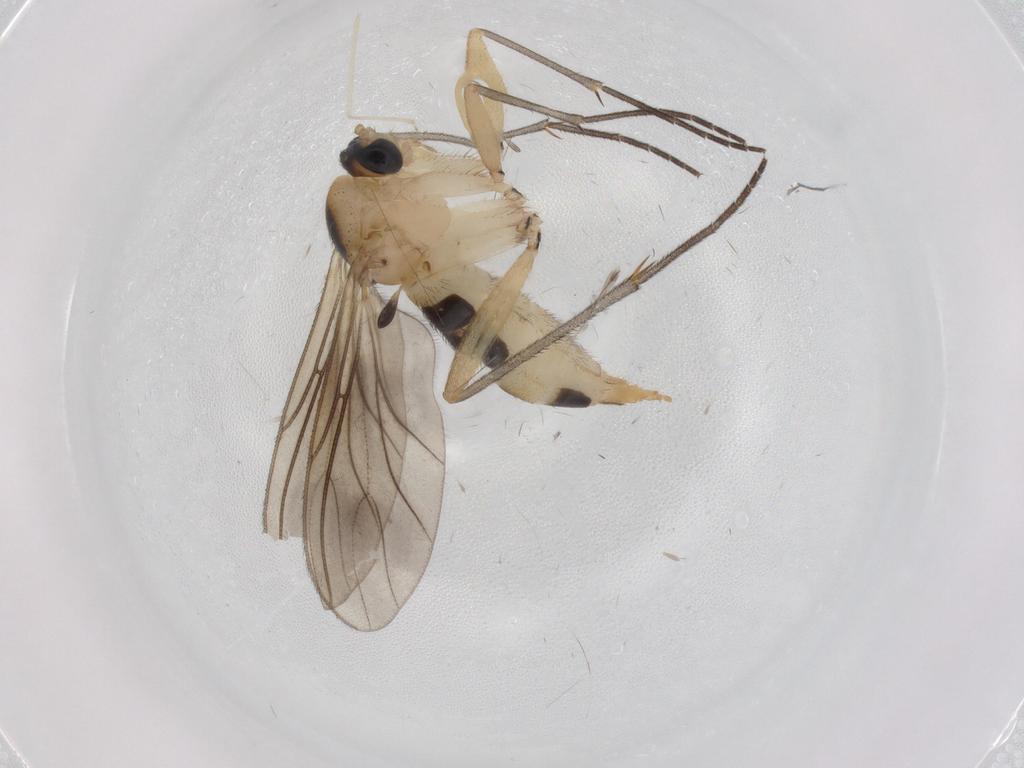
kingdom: Animalia
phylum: Arthropoda
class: Insecta
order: Diptera
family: Sciaridae
